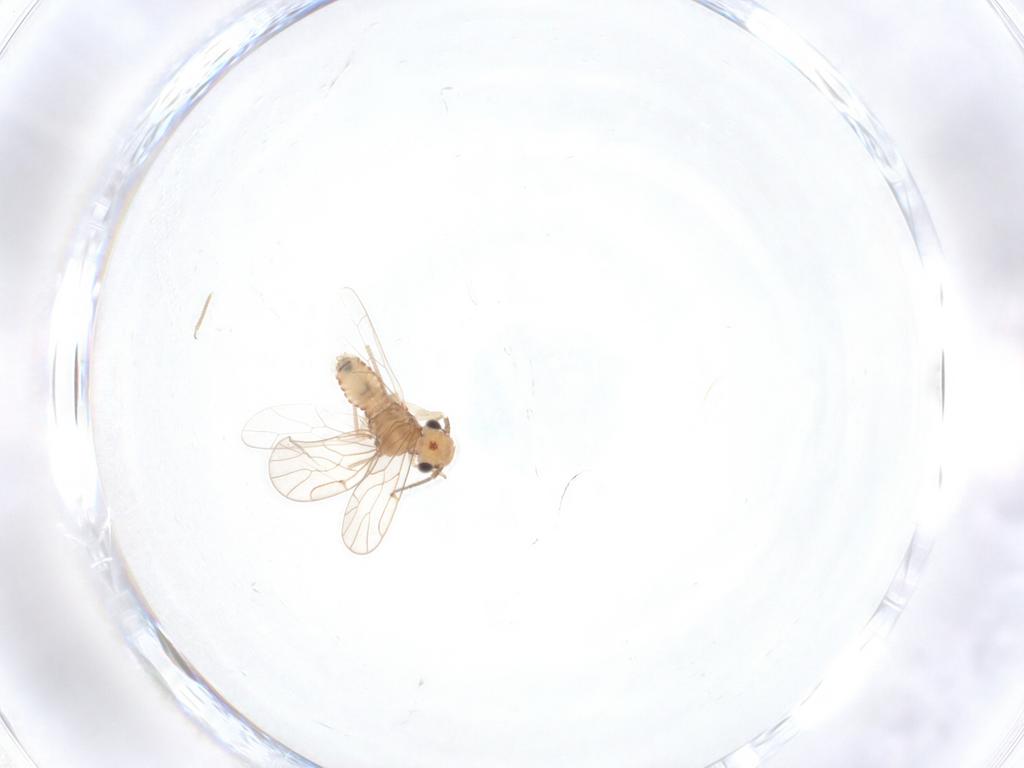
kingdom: Animalia
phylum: Arthropoda
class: Insecta
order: Psocodea
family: Ectopsocidae
